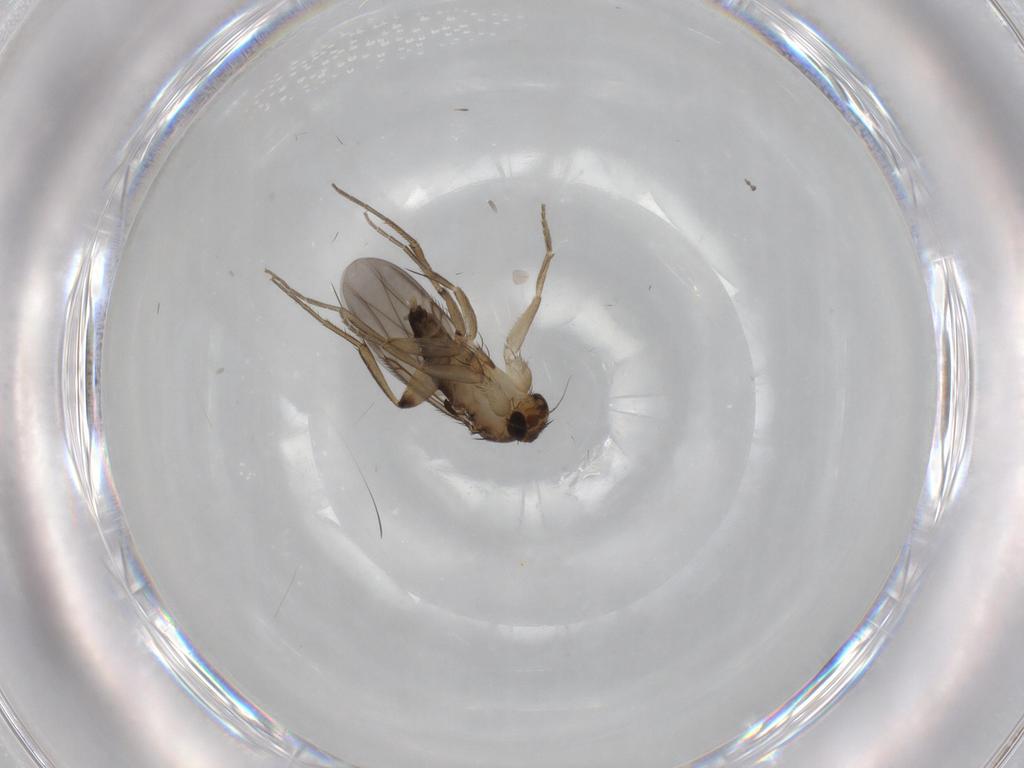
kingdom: Animalia
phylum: Arthropoda
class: Insecta
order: Diptera
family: Phoridae
